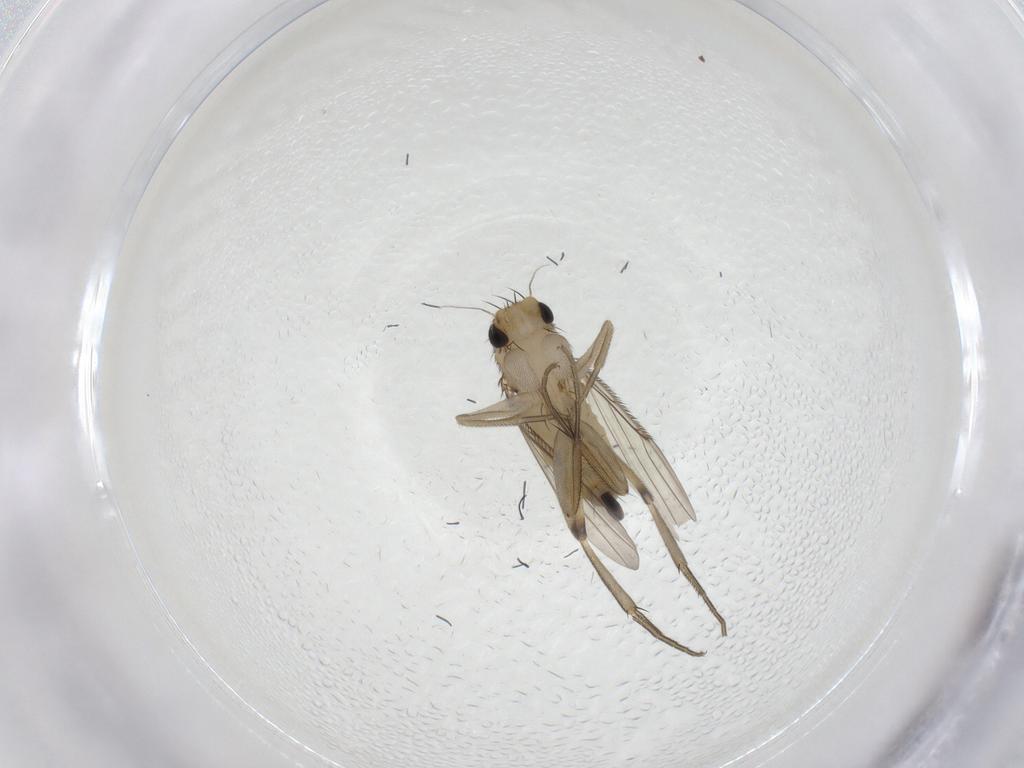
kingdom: Animalia
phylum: Arthropoda
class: Insecta
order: Diptera
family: Phoridae
